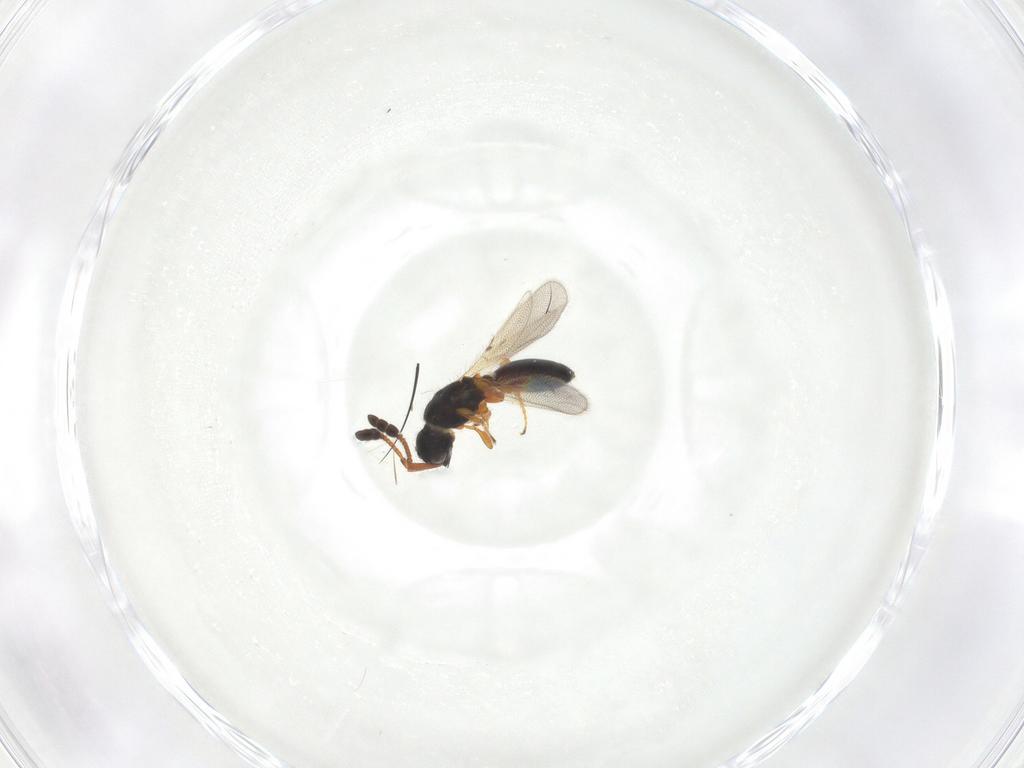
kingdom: Animalia
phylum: Arthropoda
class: Insecta
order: Hymenoptera
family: Diapriidae
